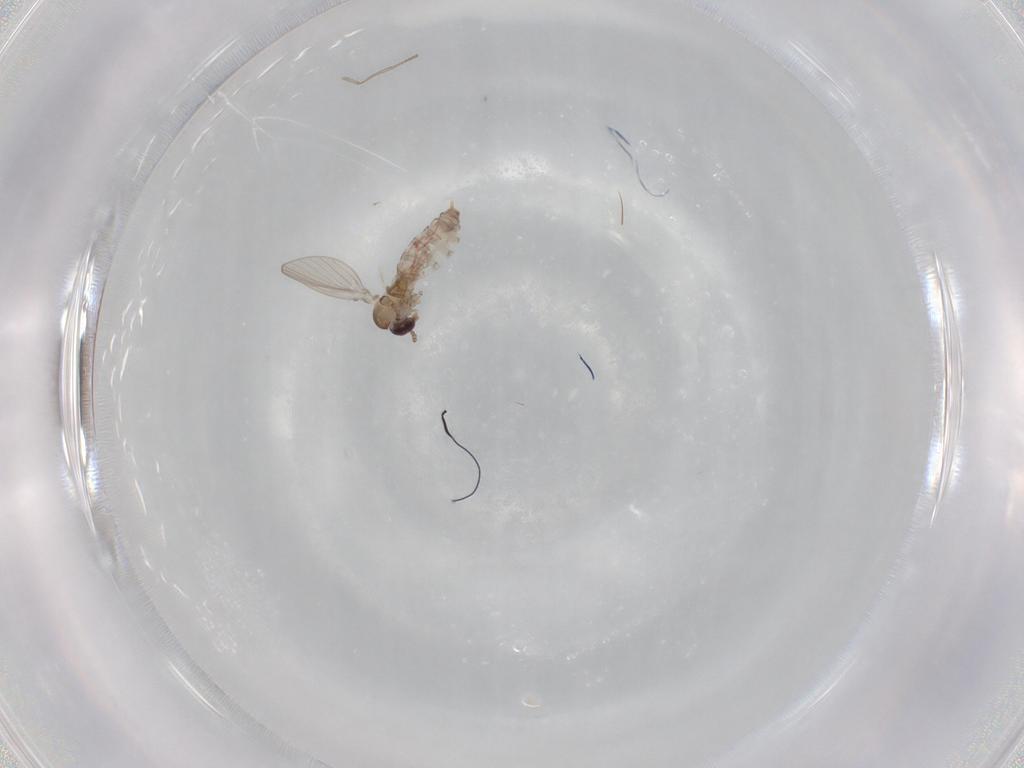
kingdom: Animalia
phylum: Arthropoda
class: Insecta
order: Diptera
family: Psychodidae
